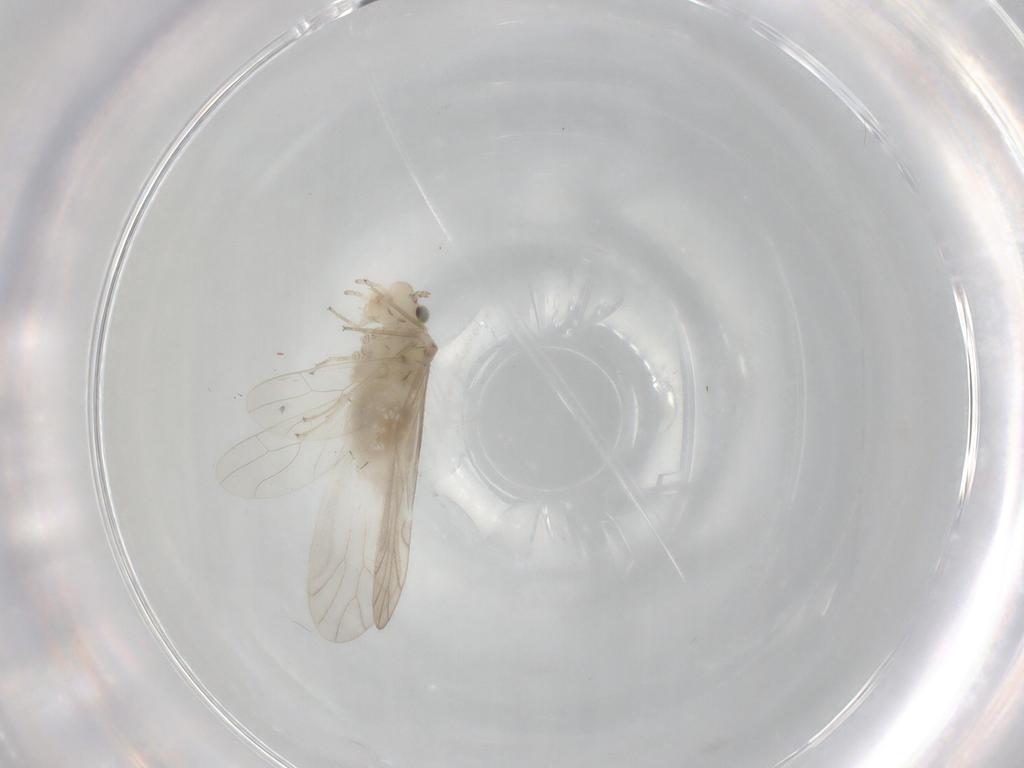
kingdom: Animalia
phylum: Arthropoda
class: Insecta
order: Psocodea
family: Caeciliusidae
